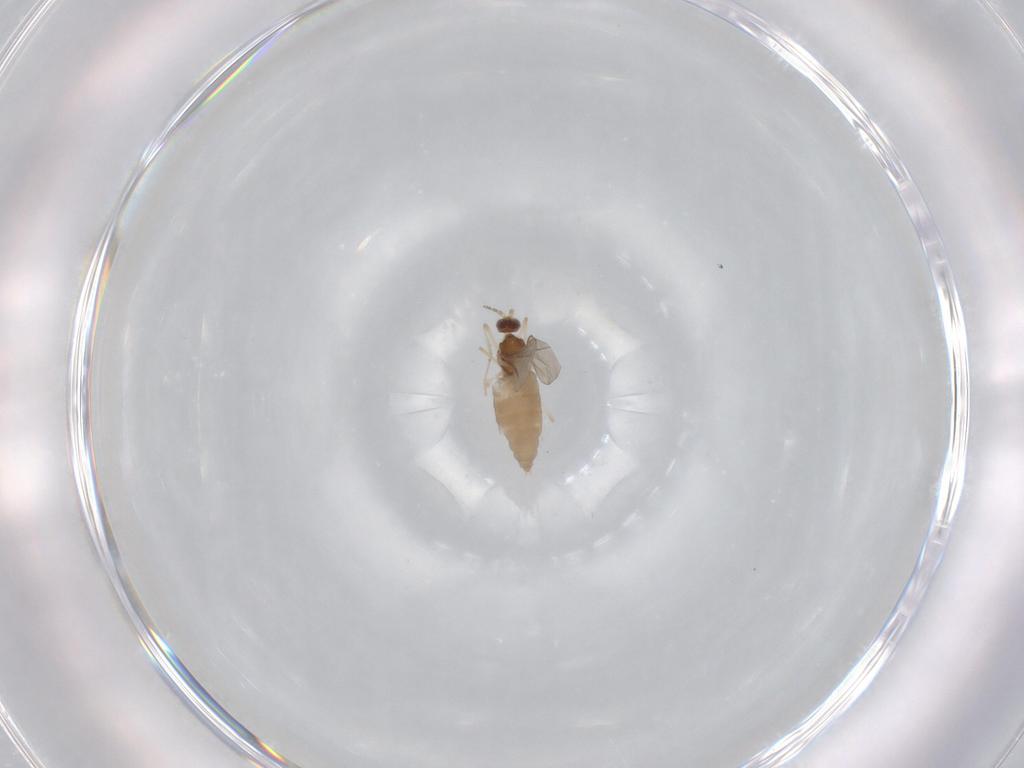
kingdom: Animalia
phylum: Arthropoda
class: Insecta
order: Diptera
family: Cecidomyiidae
